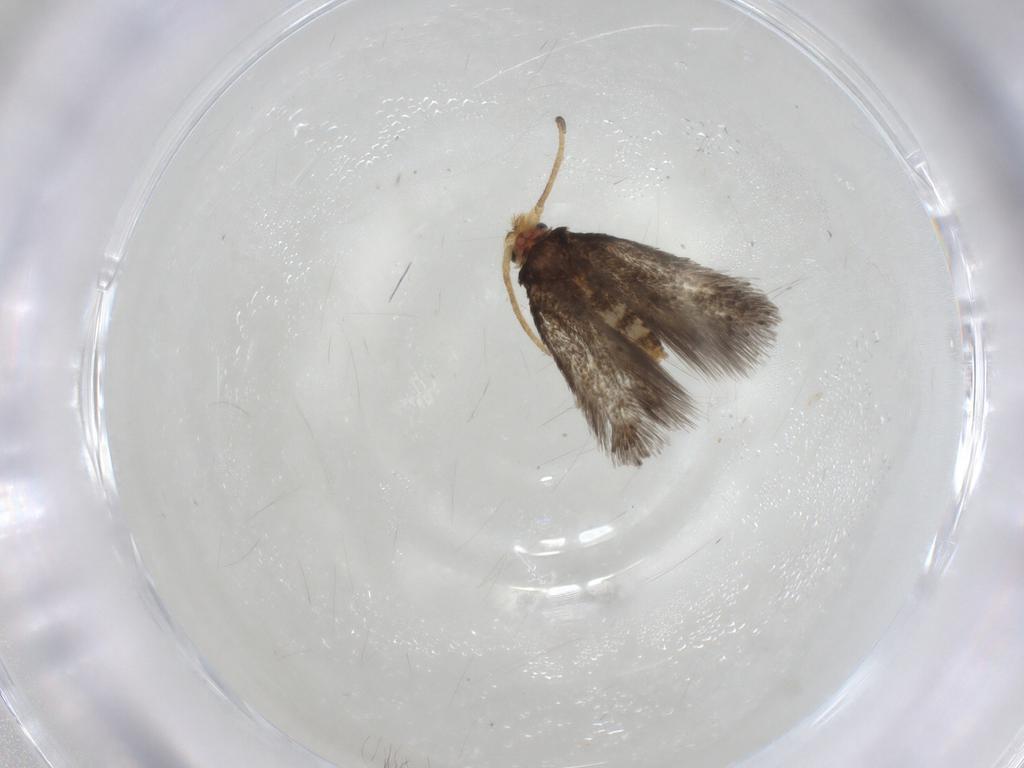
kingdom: Animalia
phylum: Arthropoda
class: Insecta
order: Lepidoptera
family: Nepticulidae
